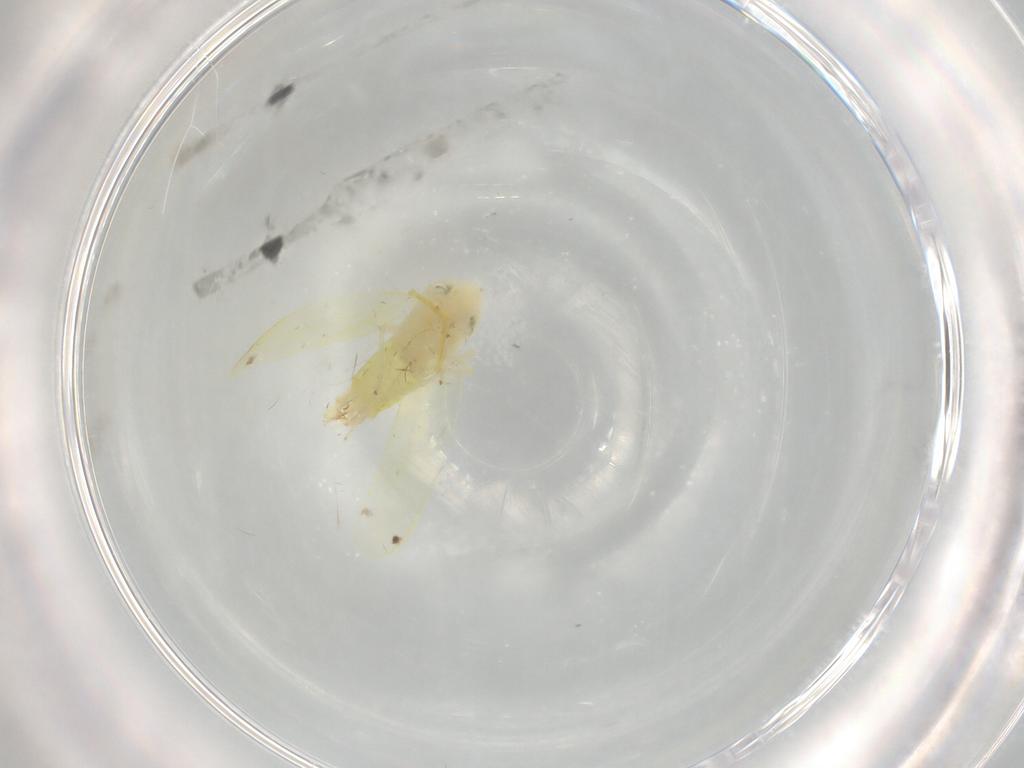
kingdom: Animalia
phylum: Arthropoda
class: Insecta
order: Hemiptera
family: Cicadellidae
